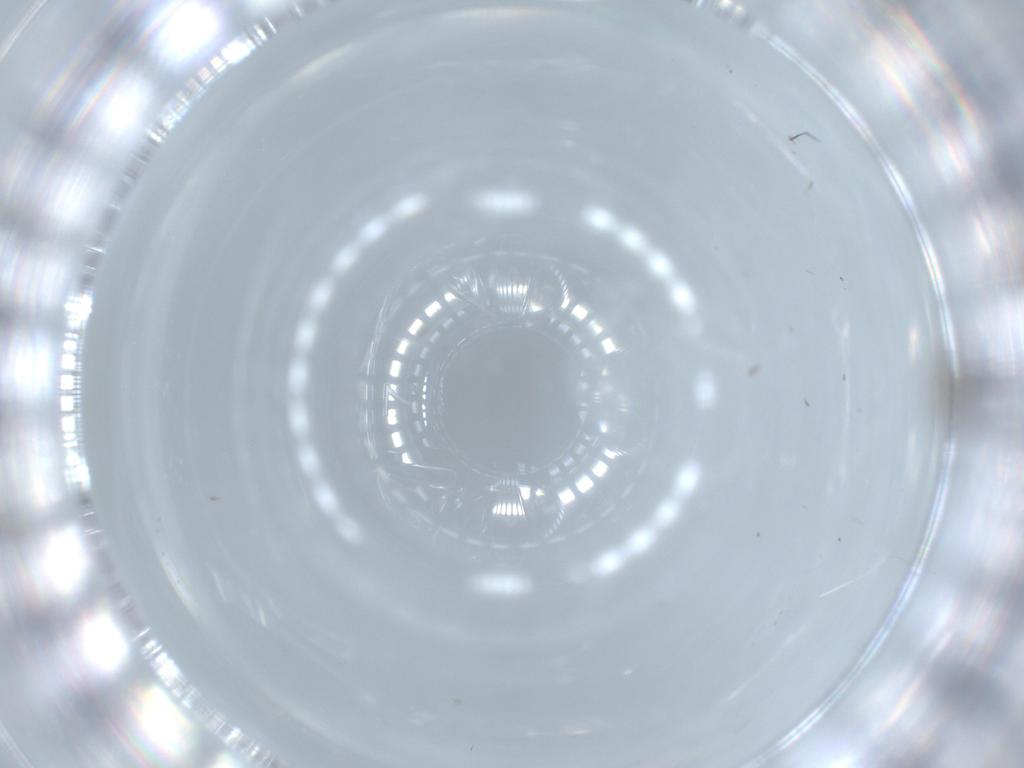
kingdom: Animalia
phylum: Arthropoda
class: Insecta
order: Diptera
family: Cecidomyiidae
